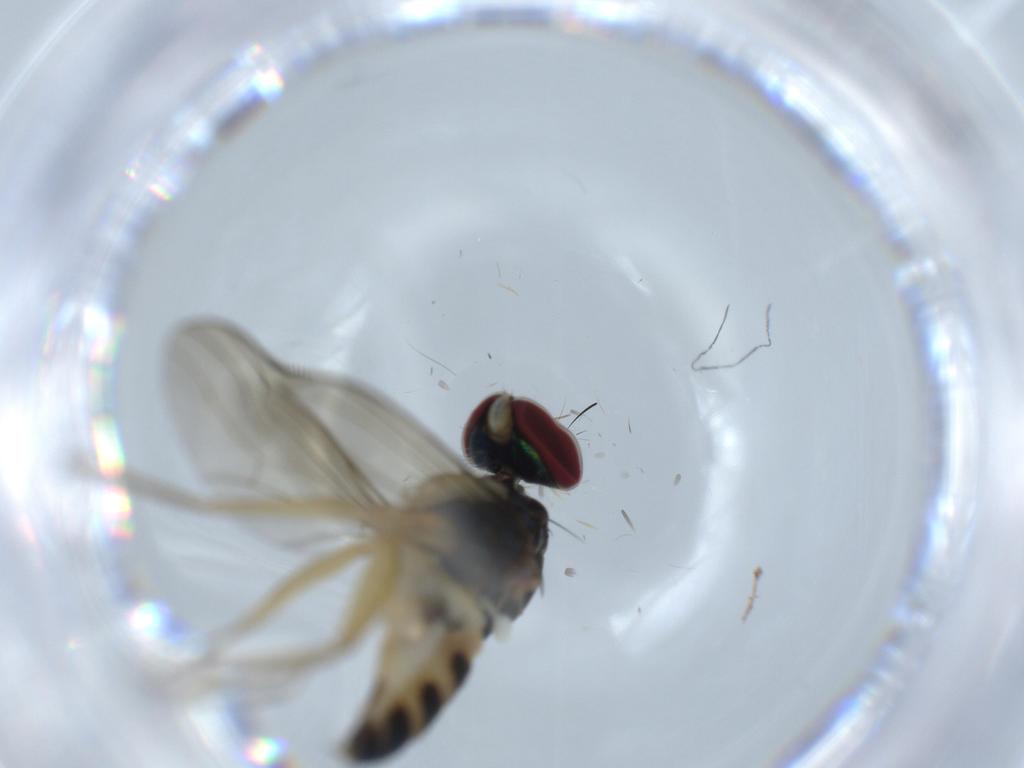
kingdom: Animalia
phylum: Arthropoda
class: Insecta
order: Diptera
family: Dolichopodidae
